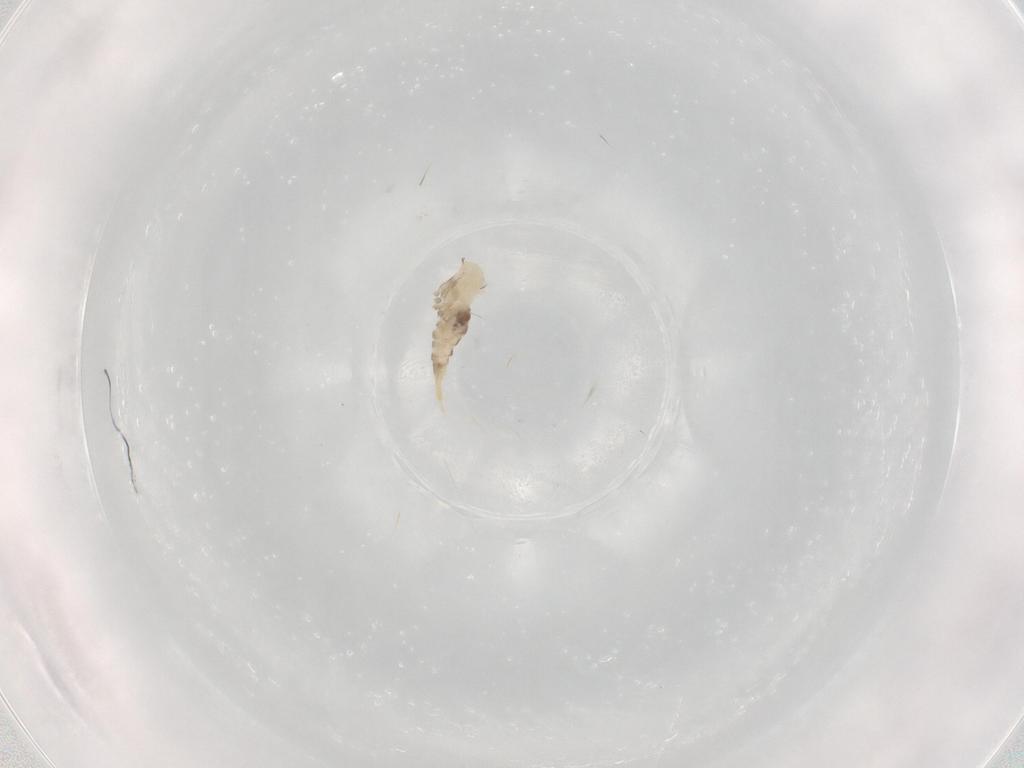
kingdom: Animalia
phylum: Arthropoda
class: Insecta
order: Diptera
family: Cecidomyiidae
